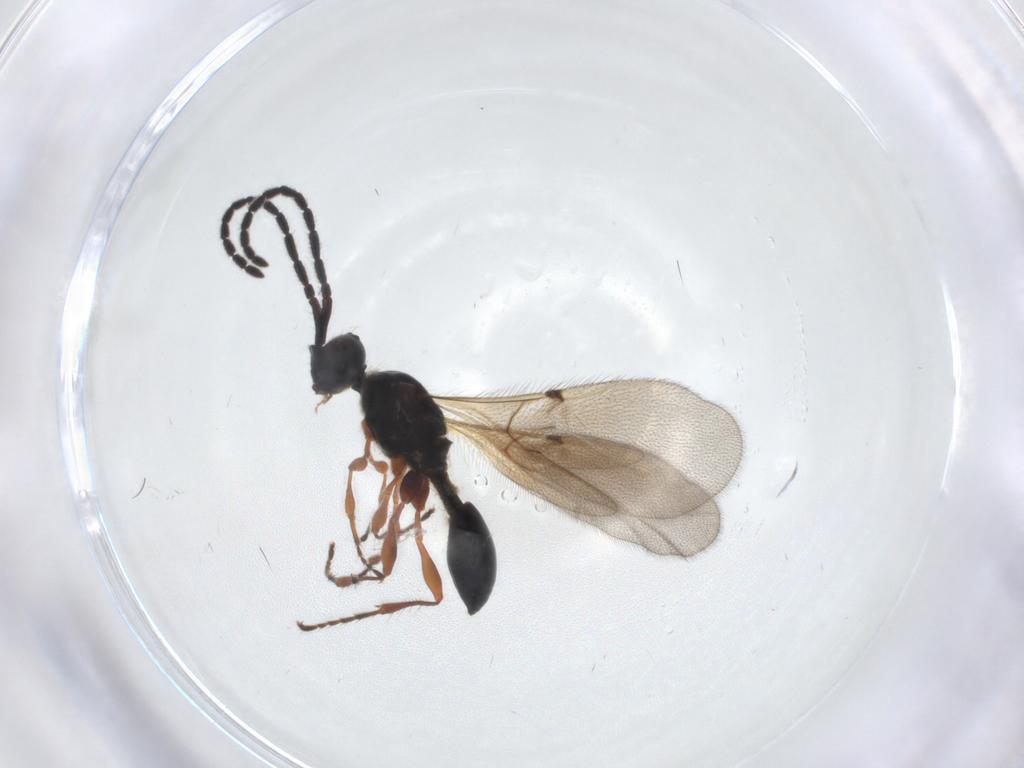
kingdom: Animalia
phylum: Arthropoda
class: Insecta
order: Hymenoptera
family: Diapriidae
